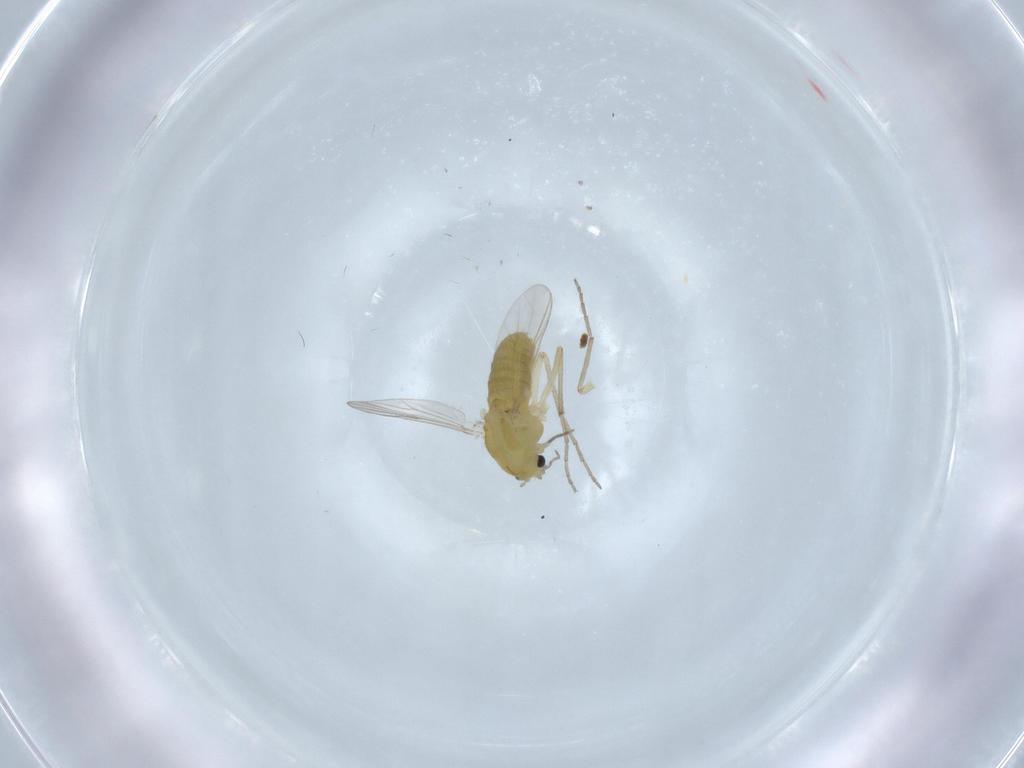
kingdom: Animalia
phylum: Arthropoda
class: Insecta
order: Diptera
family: Chironomidae
